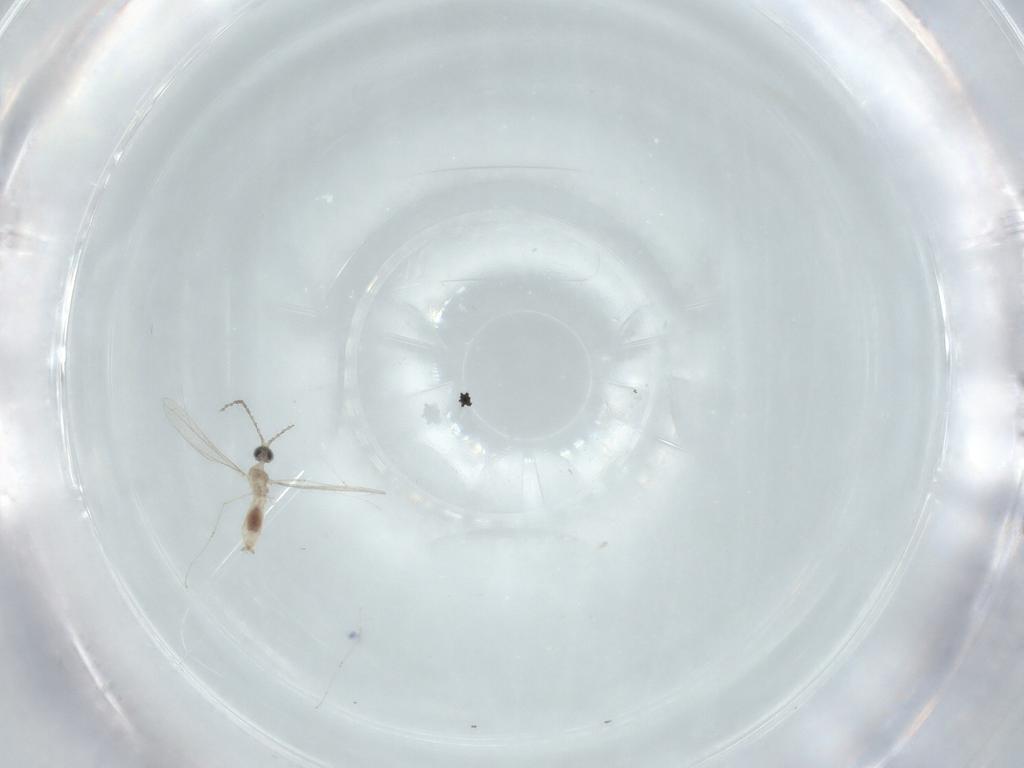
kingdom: Animalia
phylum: Arthropoda
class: Insecta
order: Diptera
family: Cecidomyiidae
